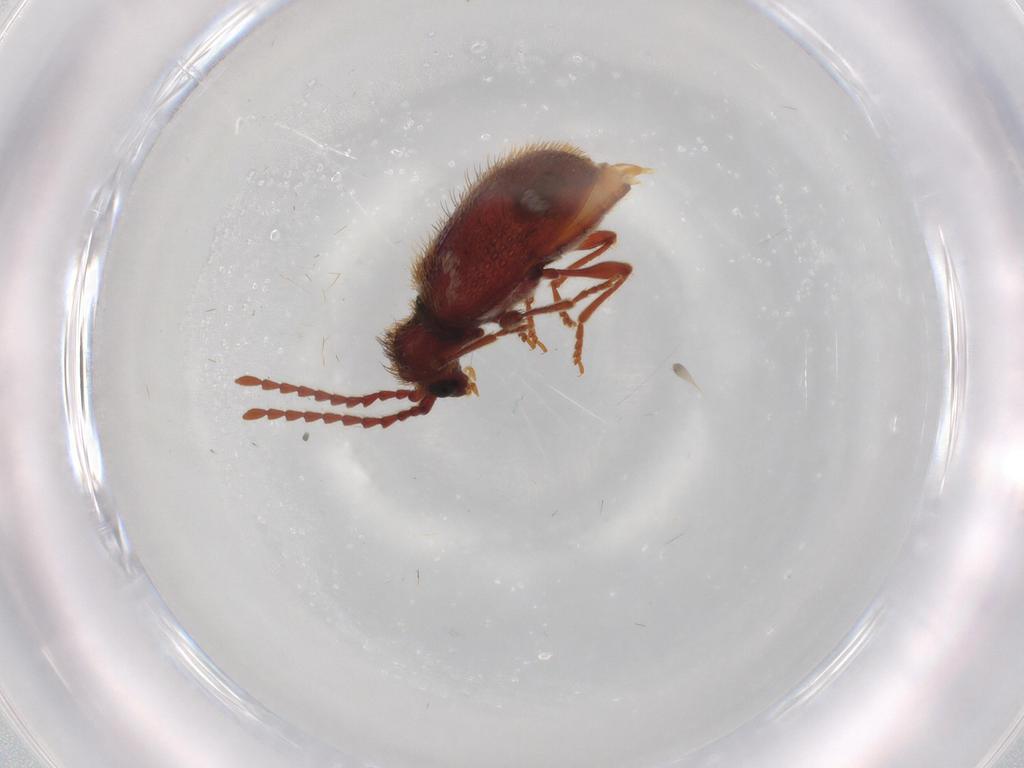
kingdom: Animalia
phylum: Arthropoda
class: Insecta
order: Coleoptera
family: Ptinidae
